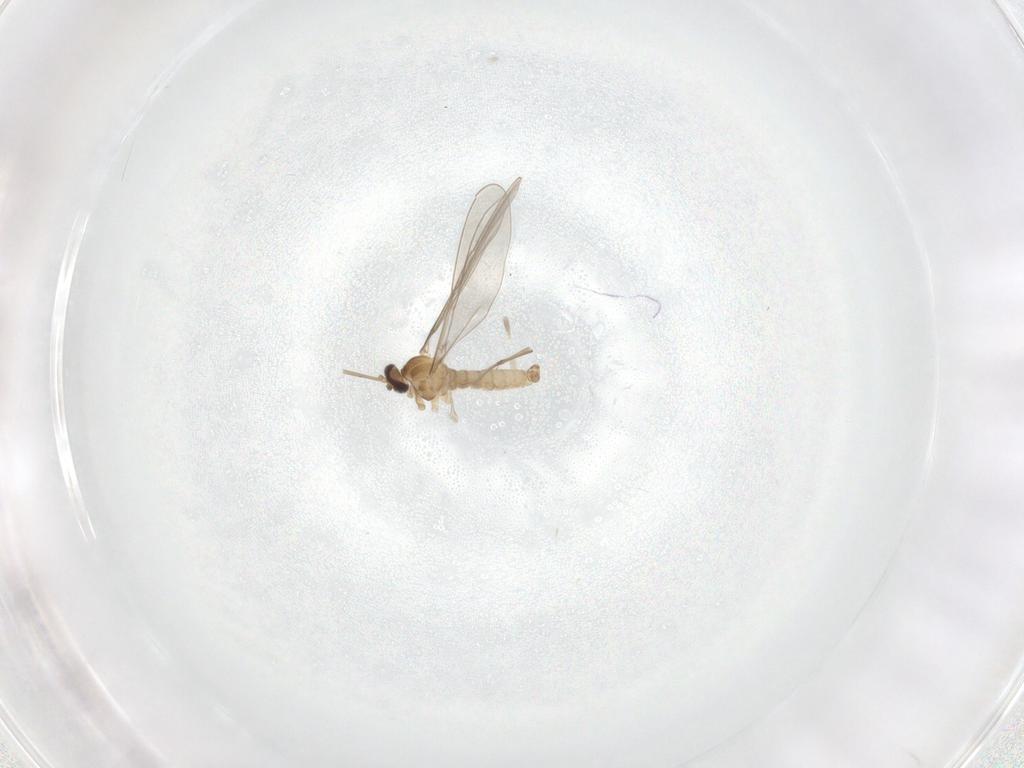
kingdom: Animalia
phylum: Arthropoda
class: Insecta
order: Diptera
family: Cecidomyiidae
